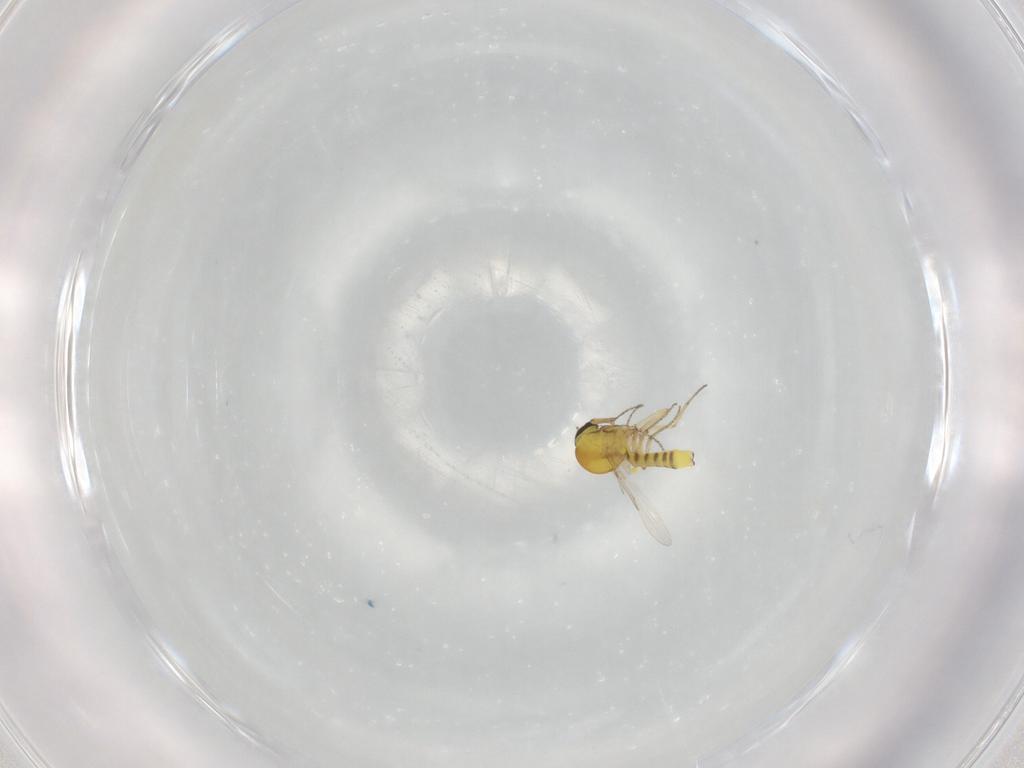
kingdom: Animalia
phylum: Arthropoda
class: Insecta
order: Diptera
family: Ceratopogonidae
